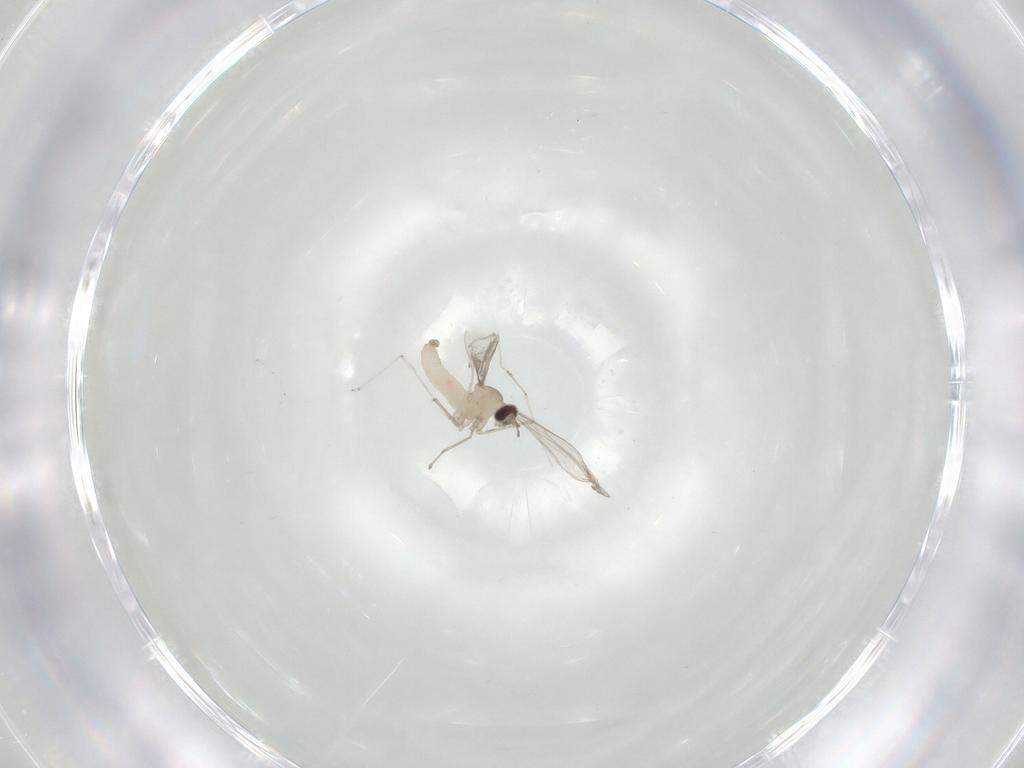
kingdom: Animalia
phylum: Arthropoda
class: Insecta
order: Diptera
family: Cecidomyiidae
